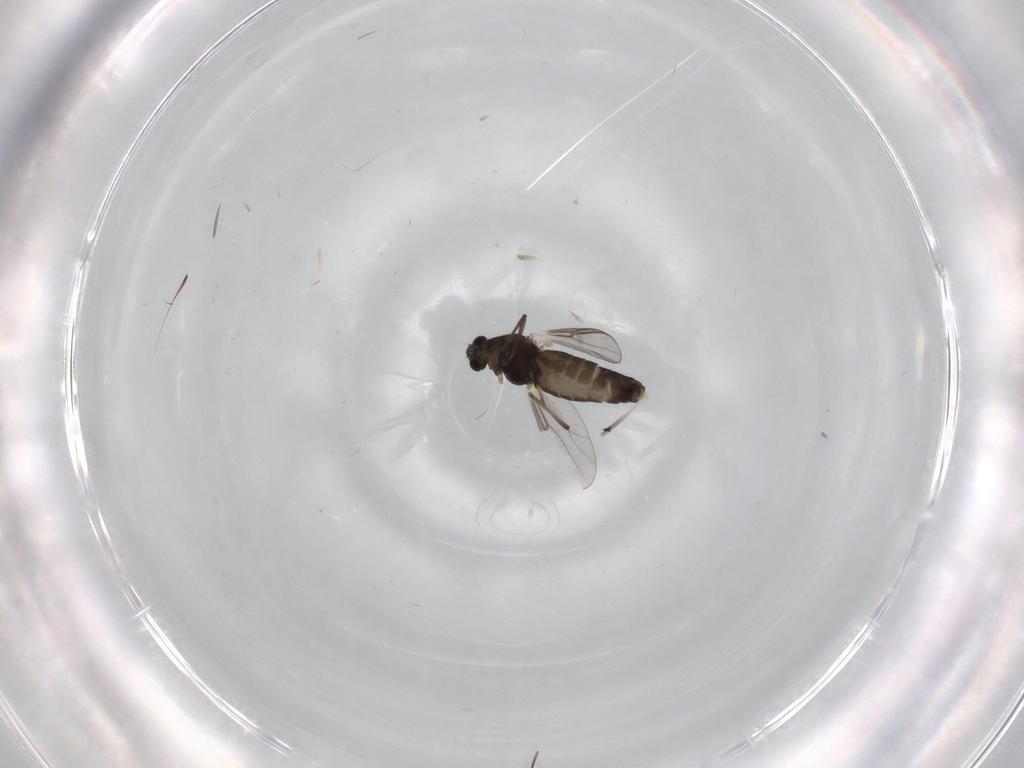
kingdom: Animalia
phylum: Arthropoda
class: Insecta
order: Diptera
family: Chironomidae
